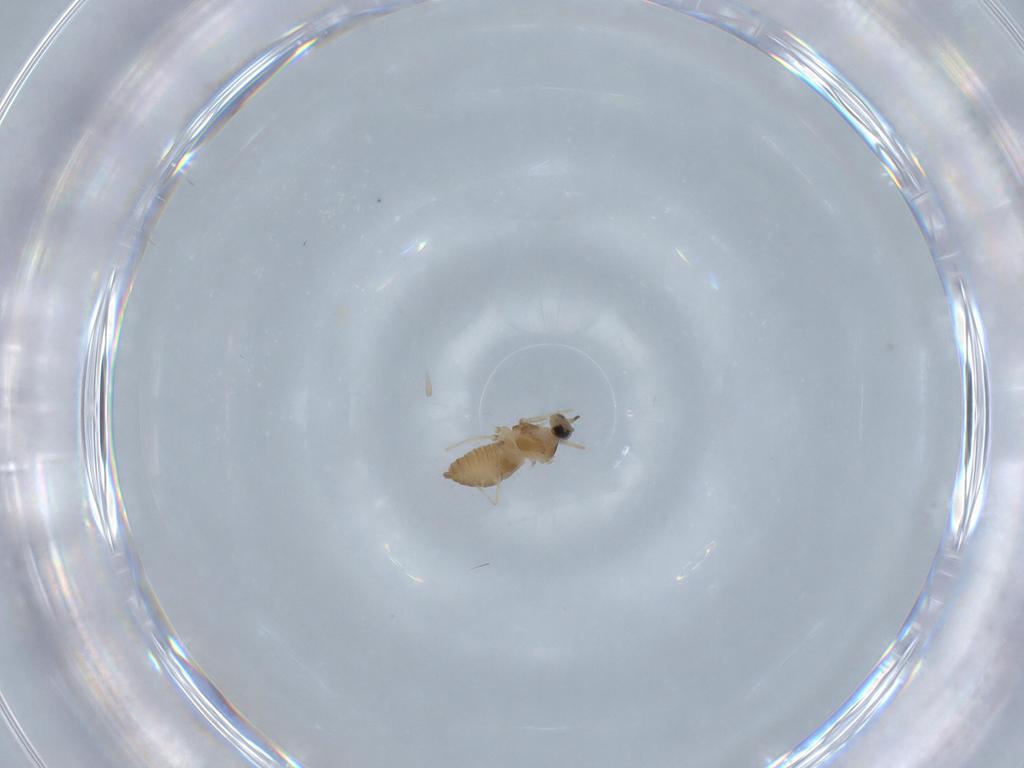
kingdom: Animalia
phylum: Arthropoda
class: Insecta
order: Diptera
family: Cecidomyiidae
